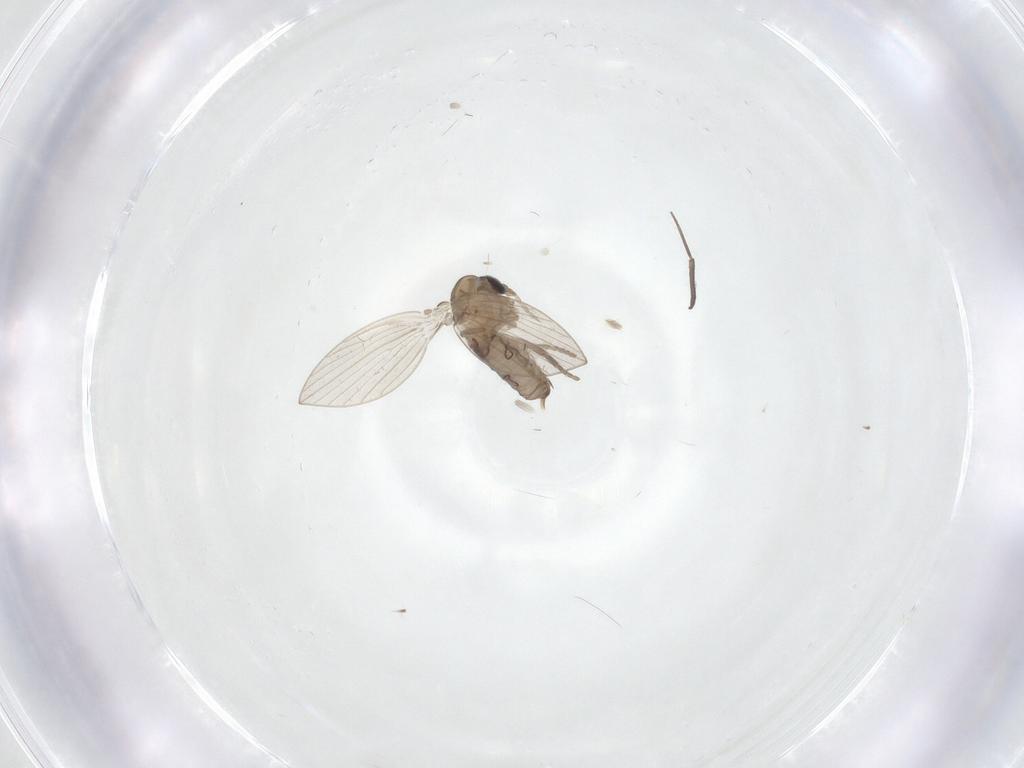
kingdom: Animalia
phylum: Arthropoda
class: Insecta
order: Diptera
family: Psychodidae
